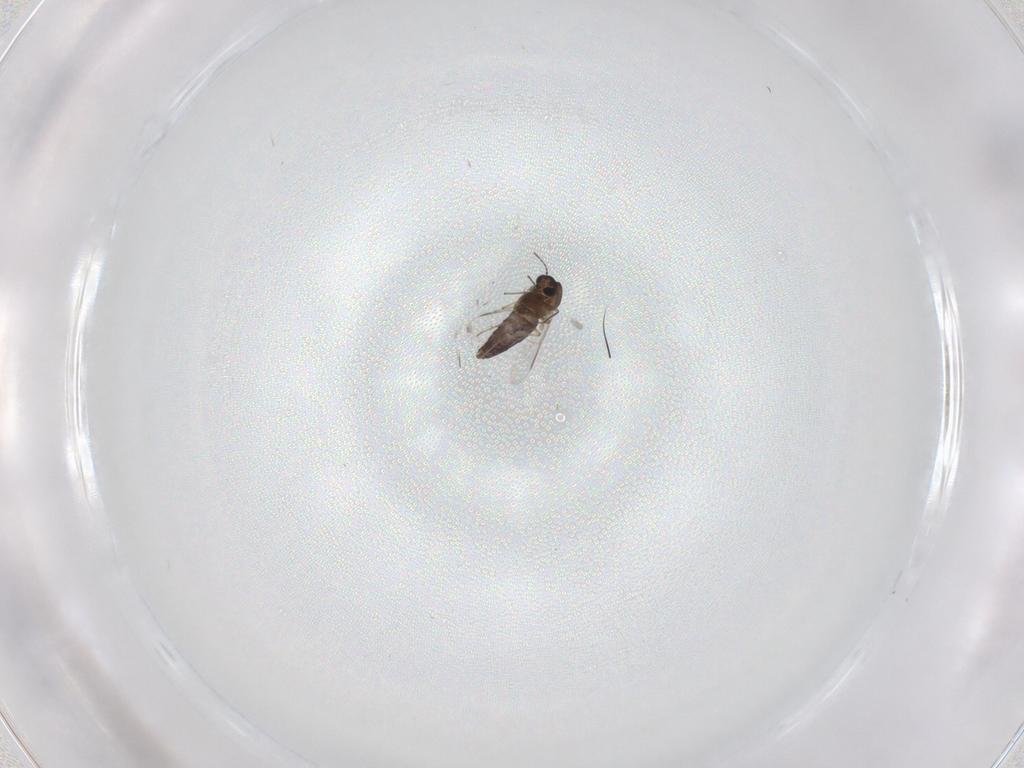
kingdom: Animalia
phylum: Arthropoda
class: Insecta
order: Diptera
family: Chironomidae
